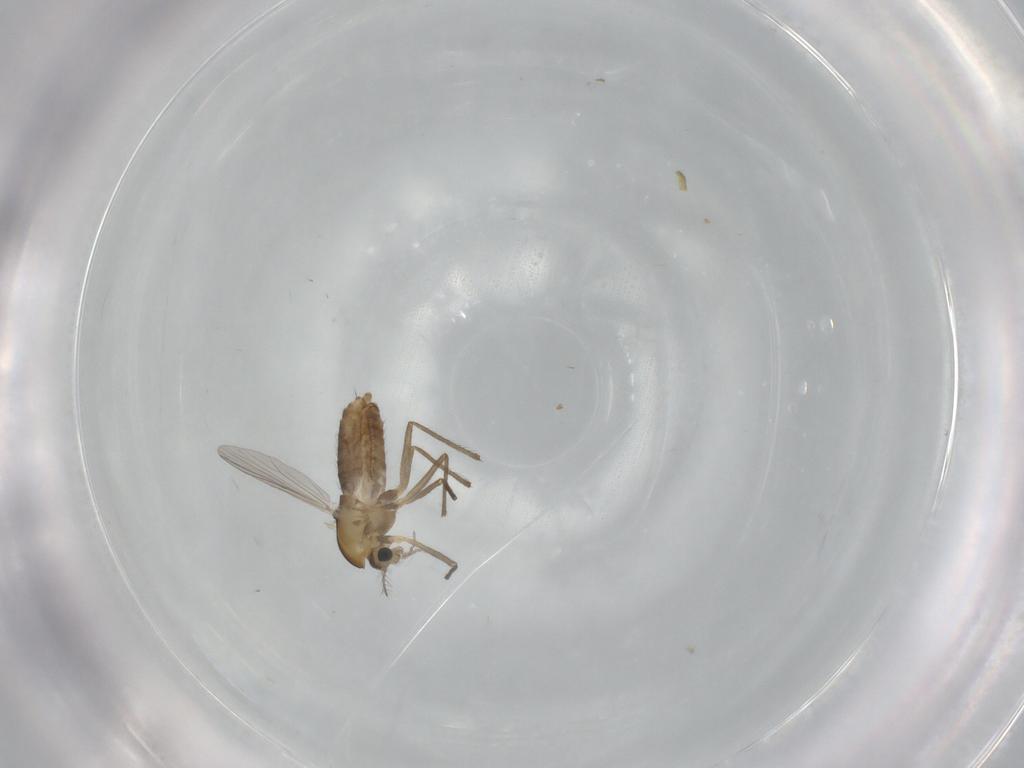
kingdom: Animalia
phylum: Arthropoda
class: Insecta
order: Diptera
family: Chironomidae
